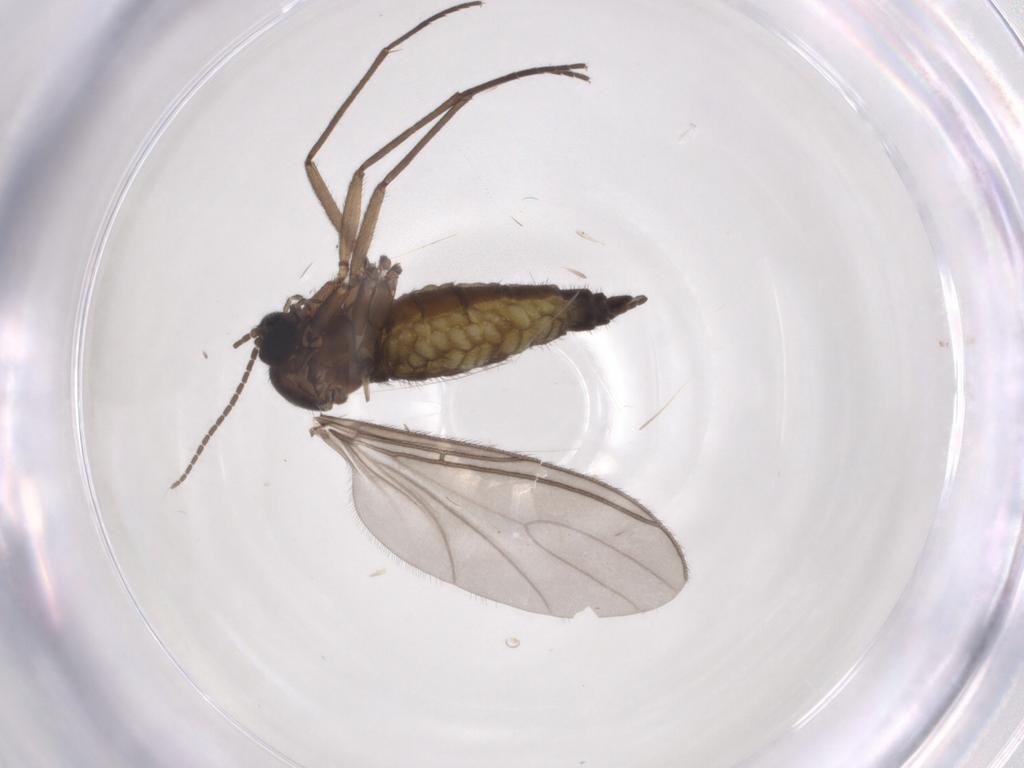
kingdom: Animalia
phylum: Arthropoda
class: Insecta
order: Diptera
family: Sciaridae
